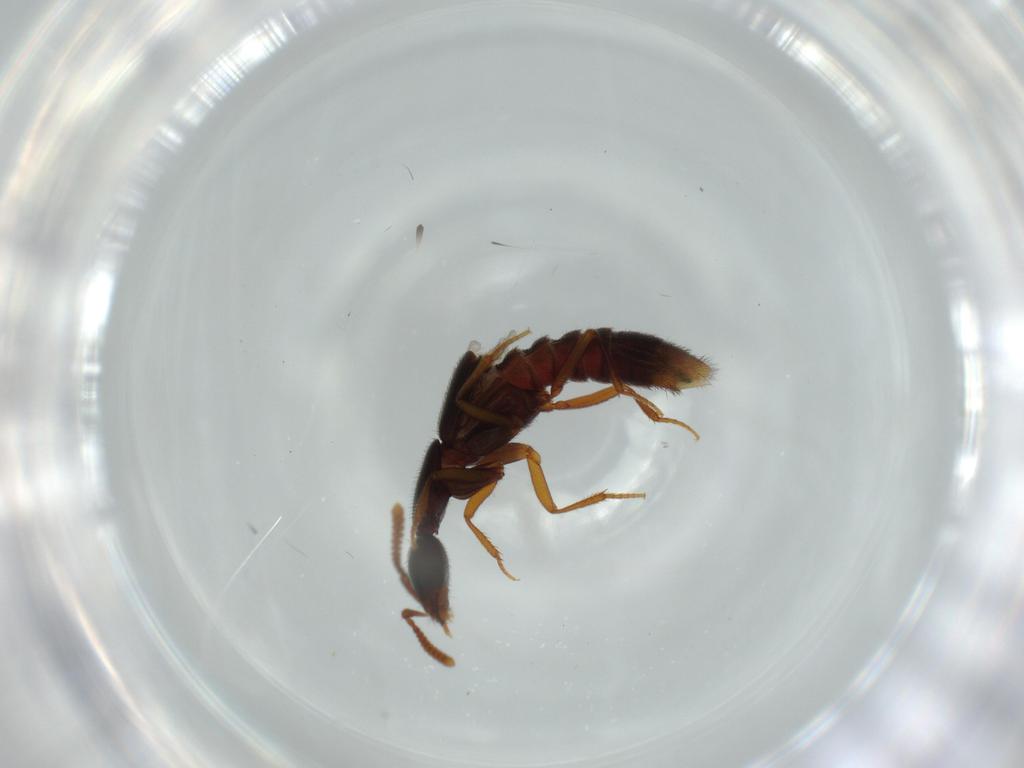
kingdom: Animalia
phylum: Arthropoda
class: Insecta
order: Coleoptera
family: Staphylinidae
